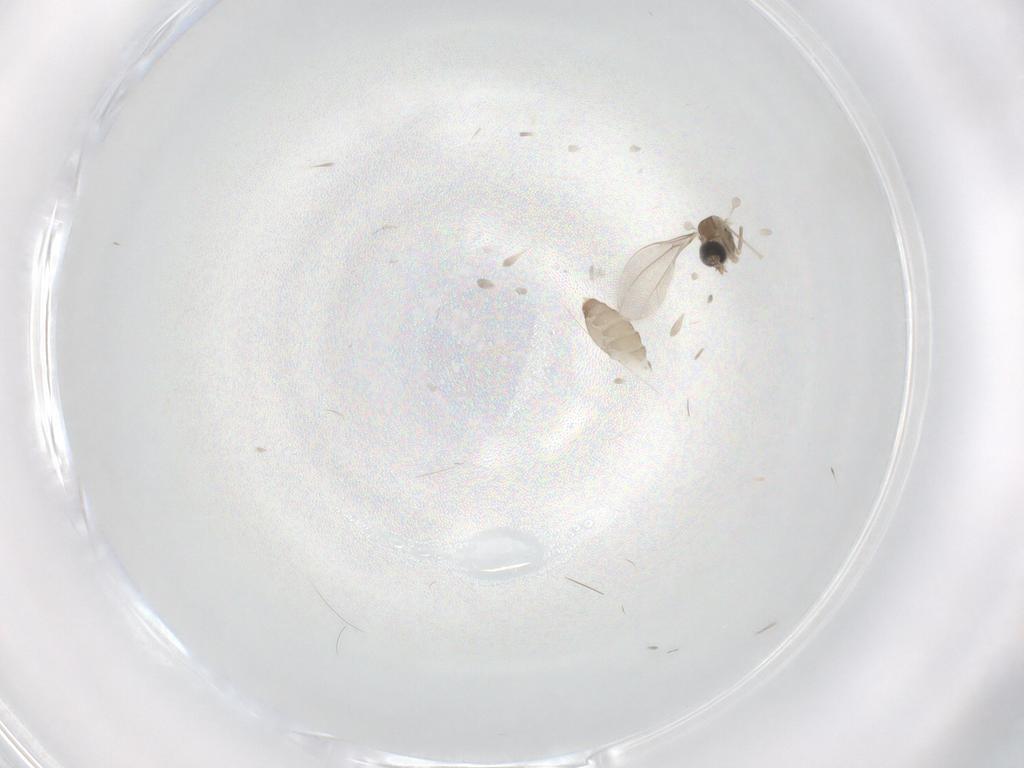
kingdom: Animalia
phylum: Arthropoda
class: Insecta
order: Diptera
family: Cecidomyiidae
